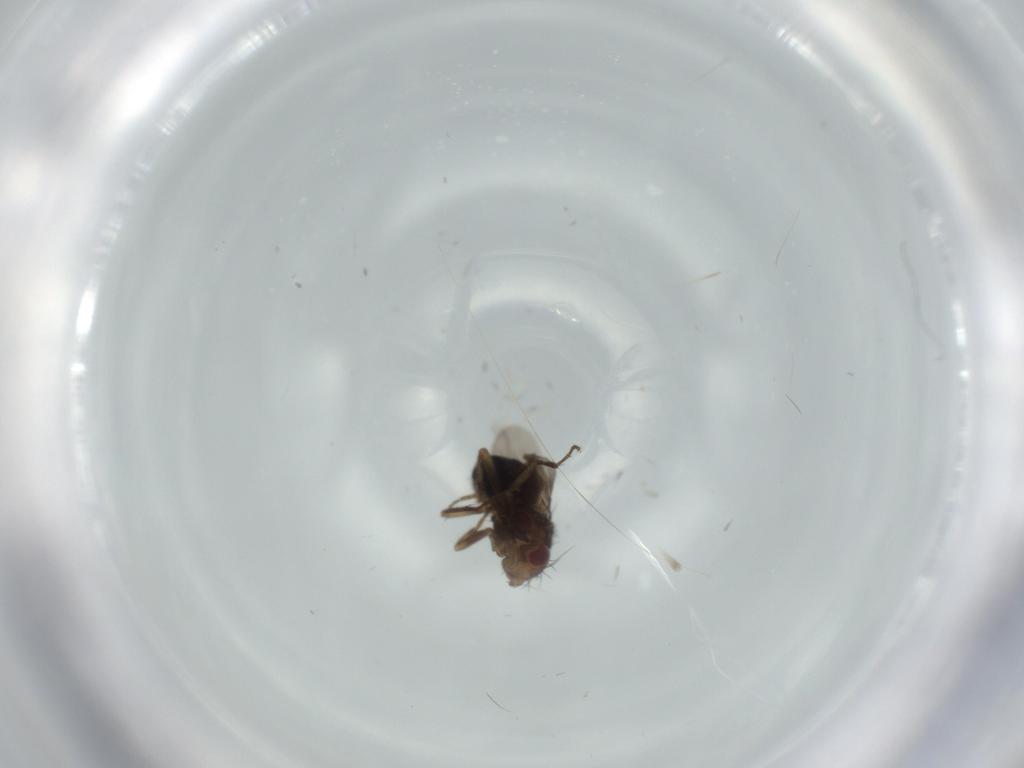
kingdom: Animalia
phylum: Arthropoda
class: Insecta
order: Diptera
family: Sphaeroceridae
